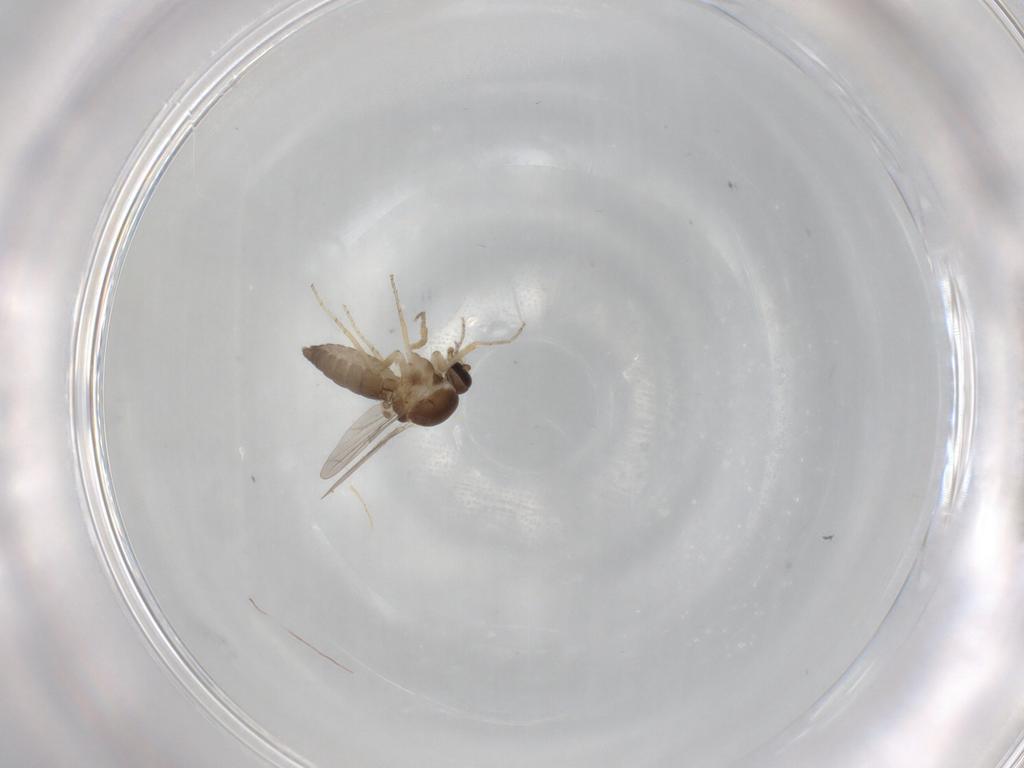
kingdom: Animalia
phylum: Arthropoda
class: Insecta
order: Diptera
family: Ceratopogonidae
